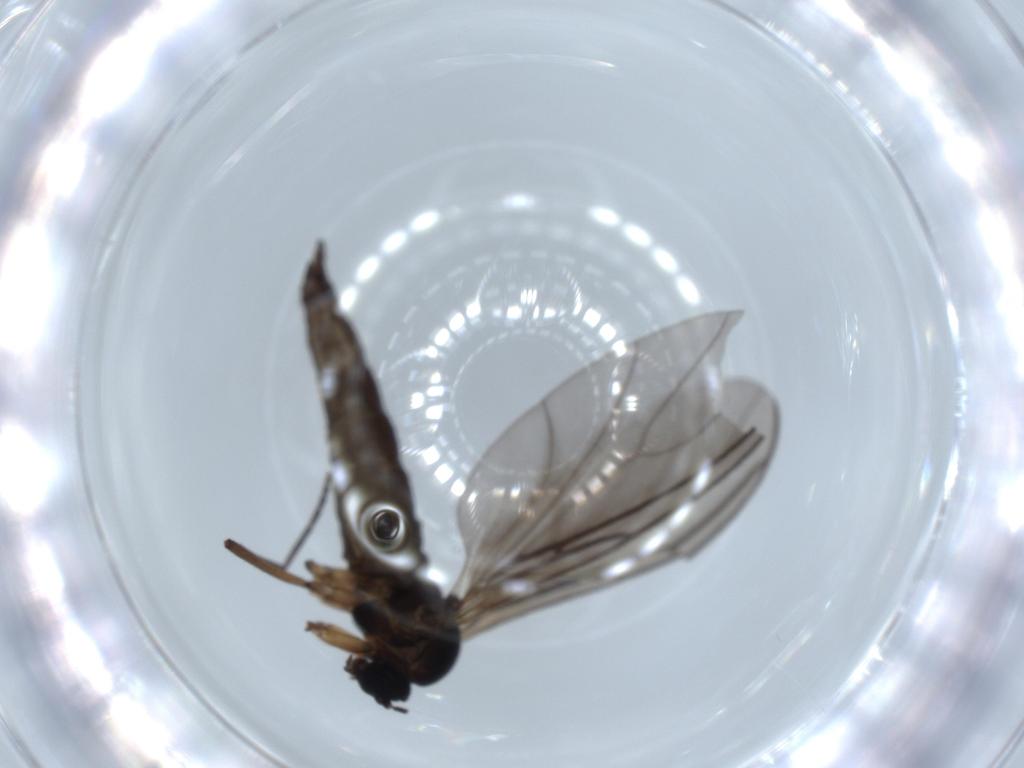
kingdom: Animalia
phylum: Arthropoda
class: Insecta
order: Diptera
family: Sciaridae
